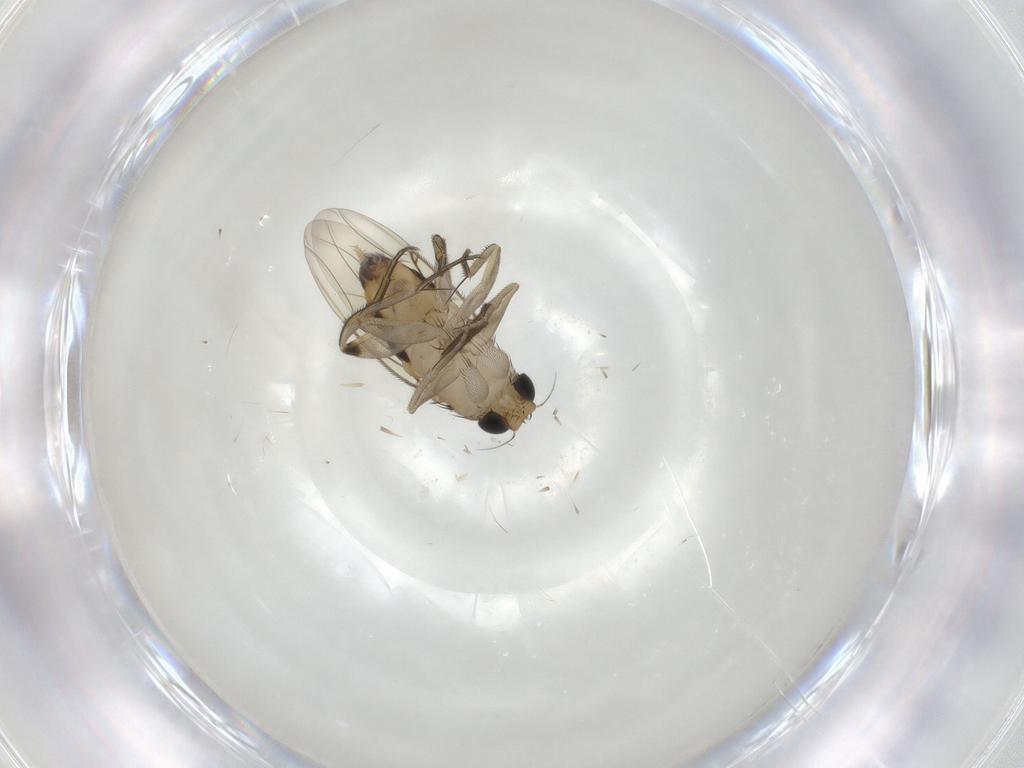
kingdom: Animalia
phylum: Arthropoda
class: Insecta
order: Diptera
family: Phoridae
